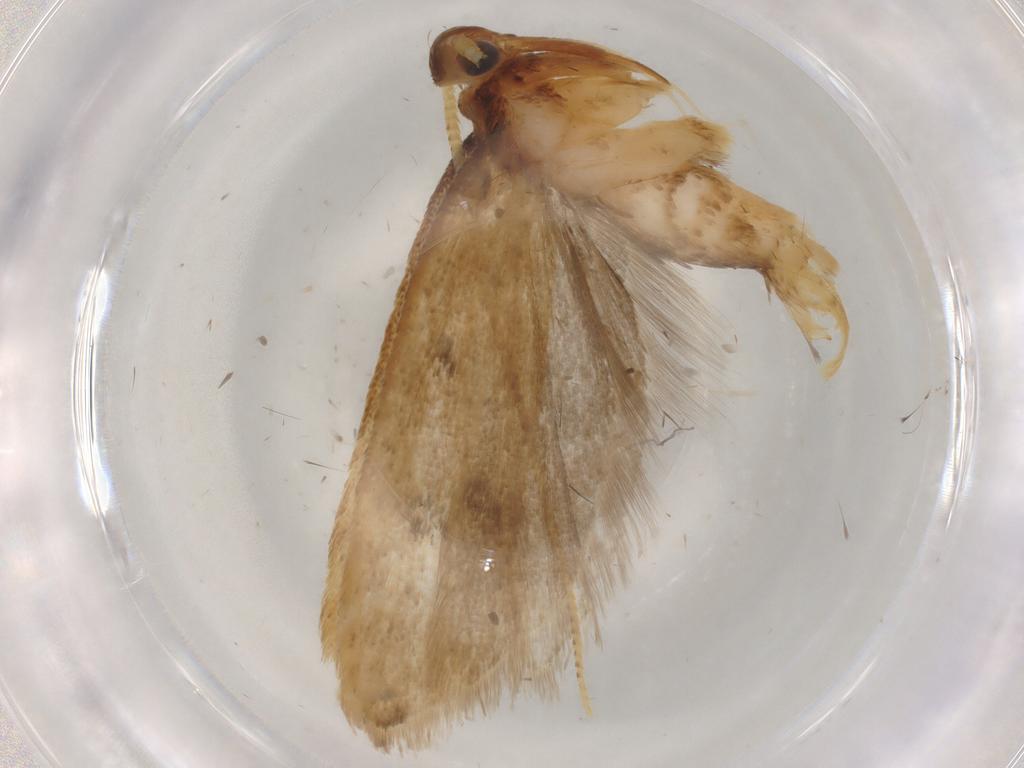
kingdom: Animalia
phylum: Arthropoda
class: Insecta
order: Lepidoptera
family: Lecithoceridae
